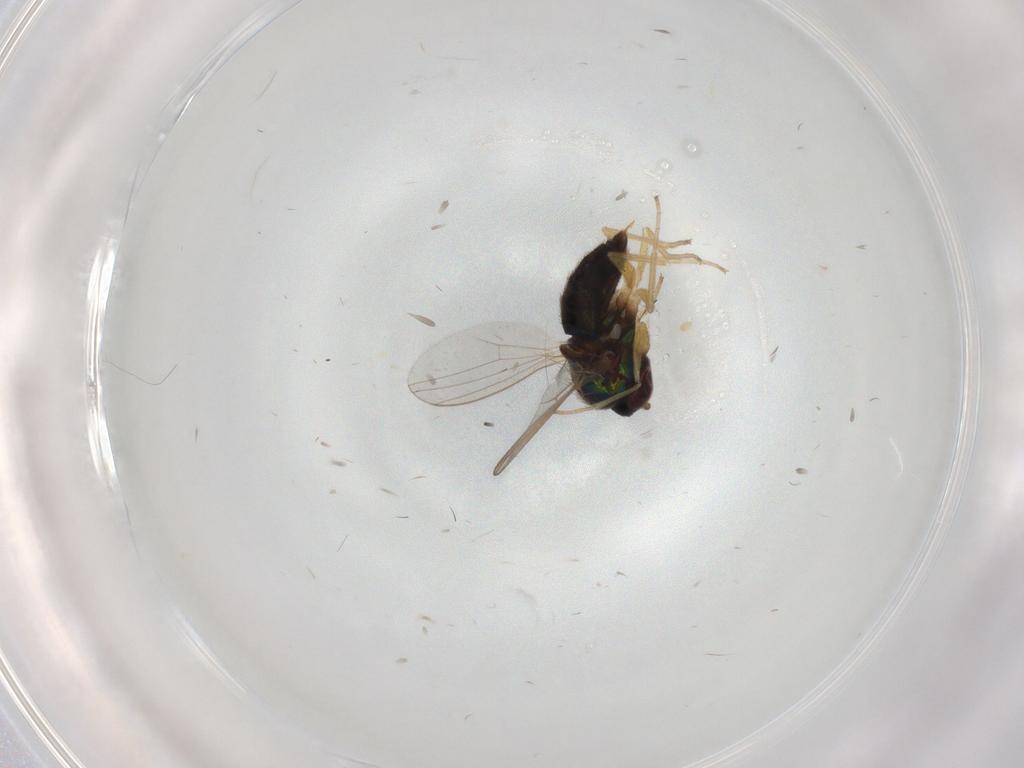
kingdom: Animalia
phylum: Arthropoda
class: Insecta
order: Diptera
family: Dolichopodidae
